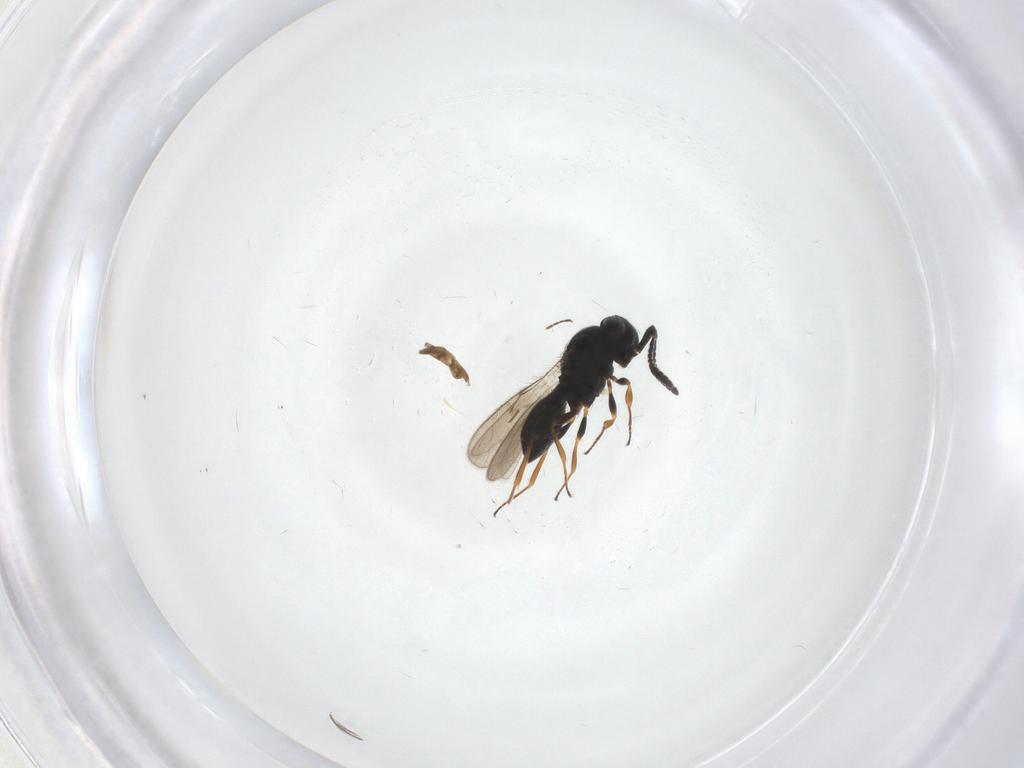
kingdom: Animalia
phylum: Arthropoda
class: Insecta
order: Hymenoptera
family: Scelionidae
